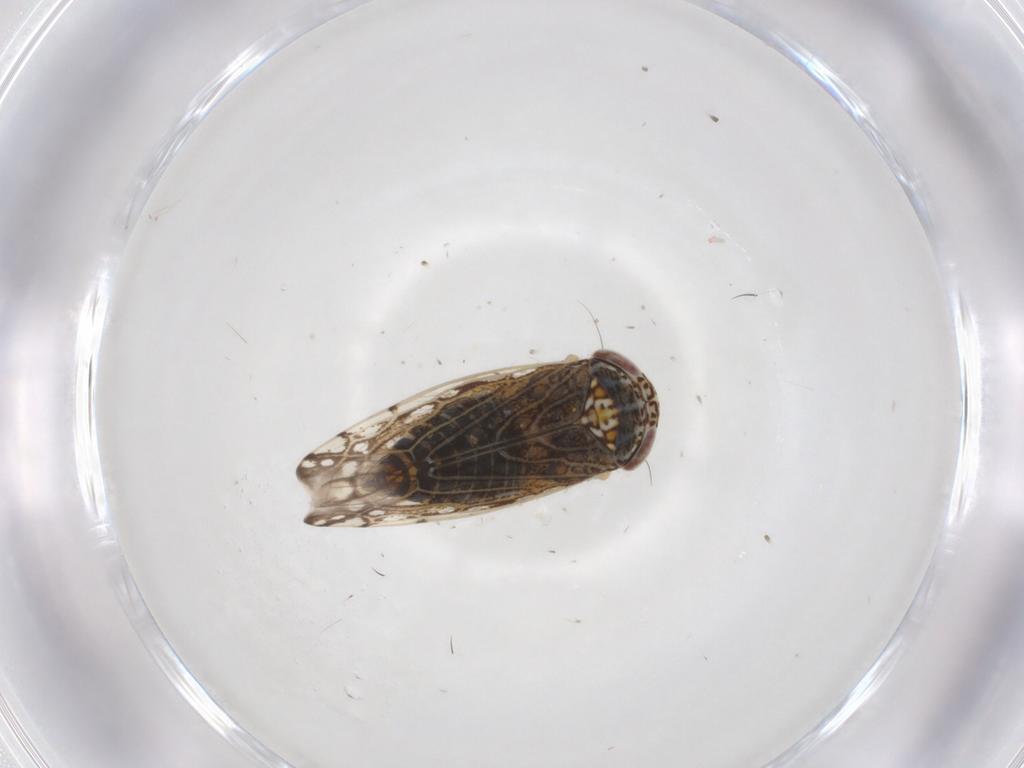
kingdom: Animalia
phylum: Arthropoda
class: Insecta
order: Hemiptera
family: Cicadellidae
